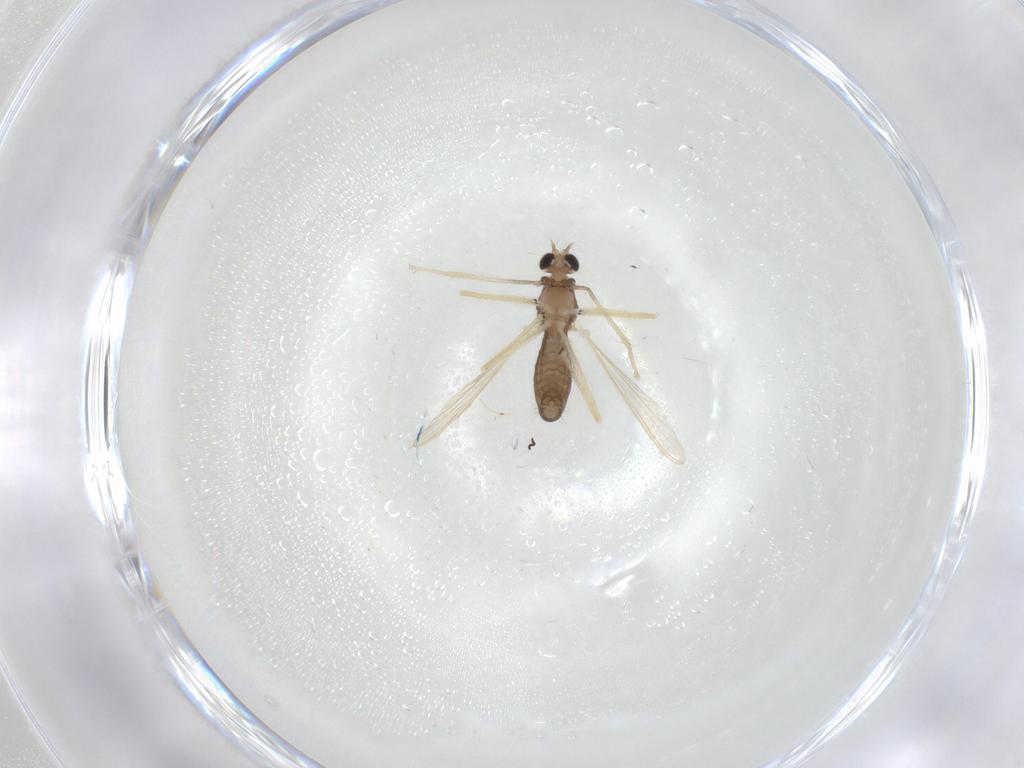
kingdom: Animalia
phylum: Arthropoda
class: Insecta
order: Diptera
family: Chironomidae
